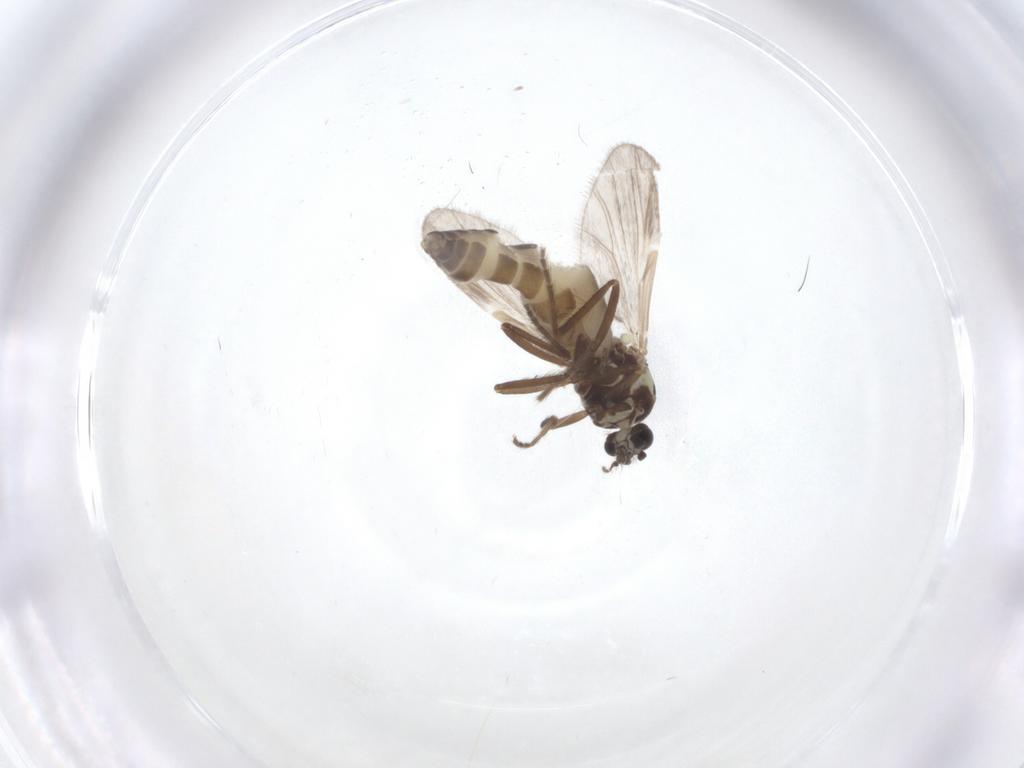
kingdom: Animalia
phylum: Arthropoda
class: Insecta
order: Diptera
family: Ceratopogonidae
